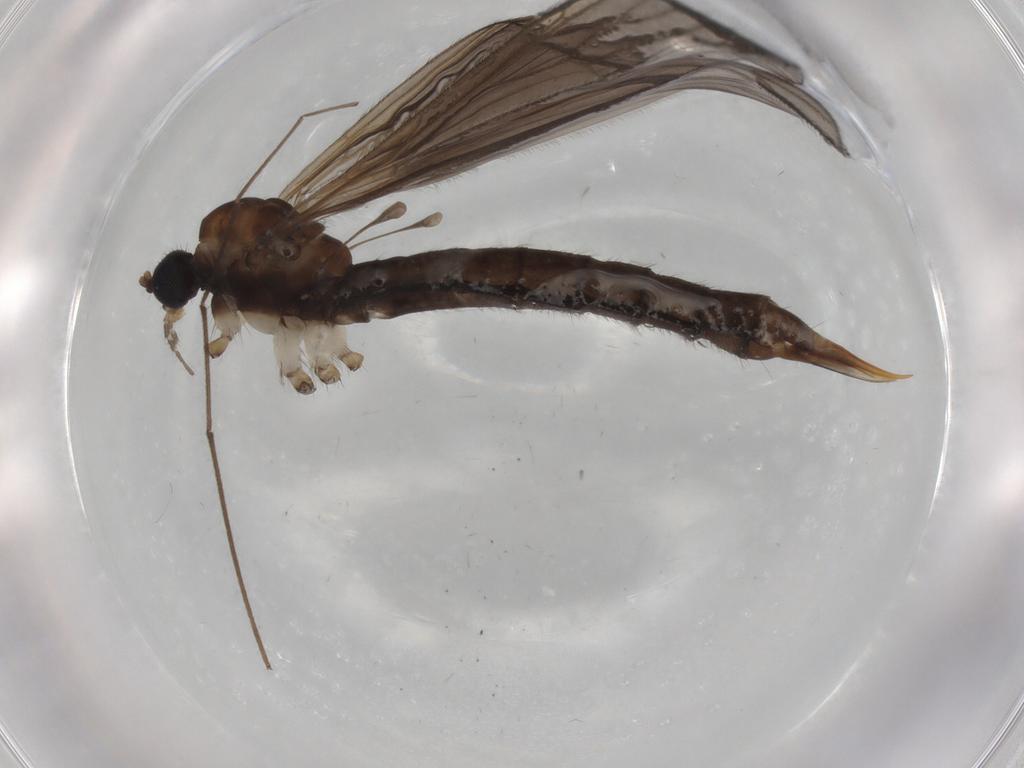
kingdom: Animalia
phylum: Arthropoda
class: Insecta
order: Diptera
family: Limoniidae
